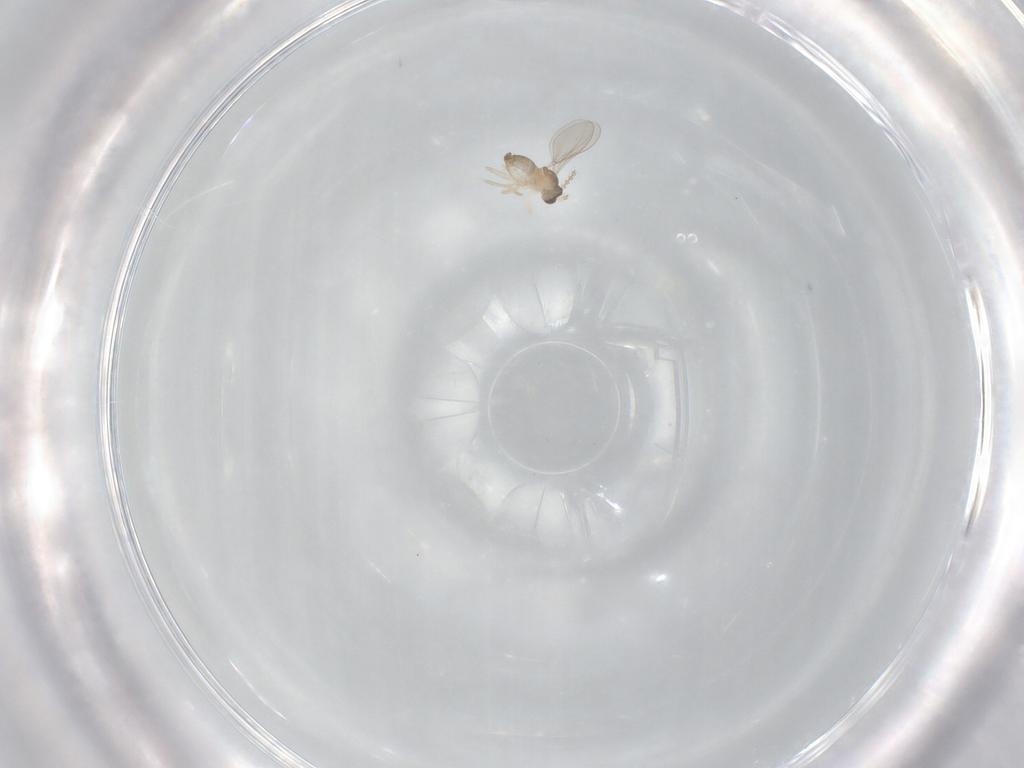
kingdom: Animalia
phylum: Arthropoda
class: Insecta
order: Diptera
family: Cecidomyiidae
